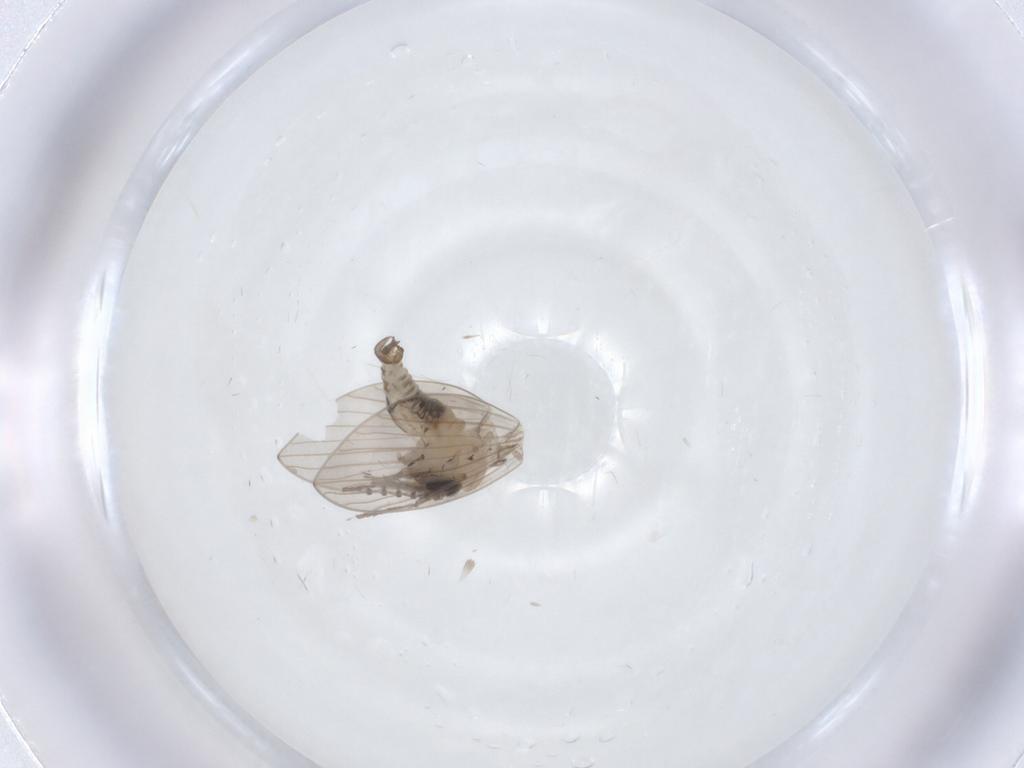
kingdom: Animalia
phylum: Arthropoda
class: Insecta
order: Diptera
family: Psychodidae
